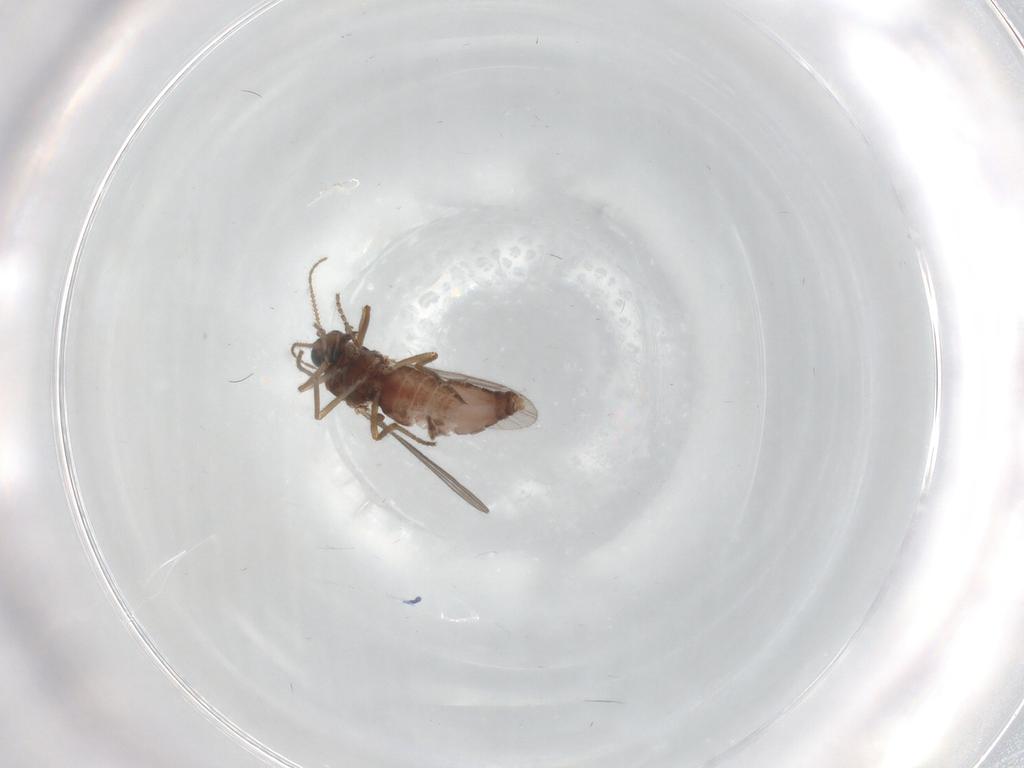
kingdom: Animalia
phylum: Arthropoda
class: Insecta
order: Diptera
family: Ceratopogonidae
